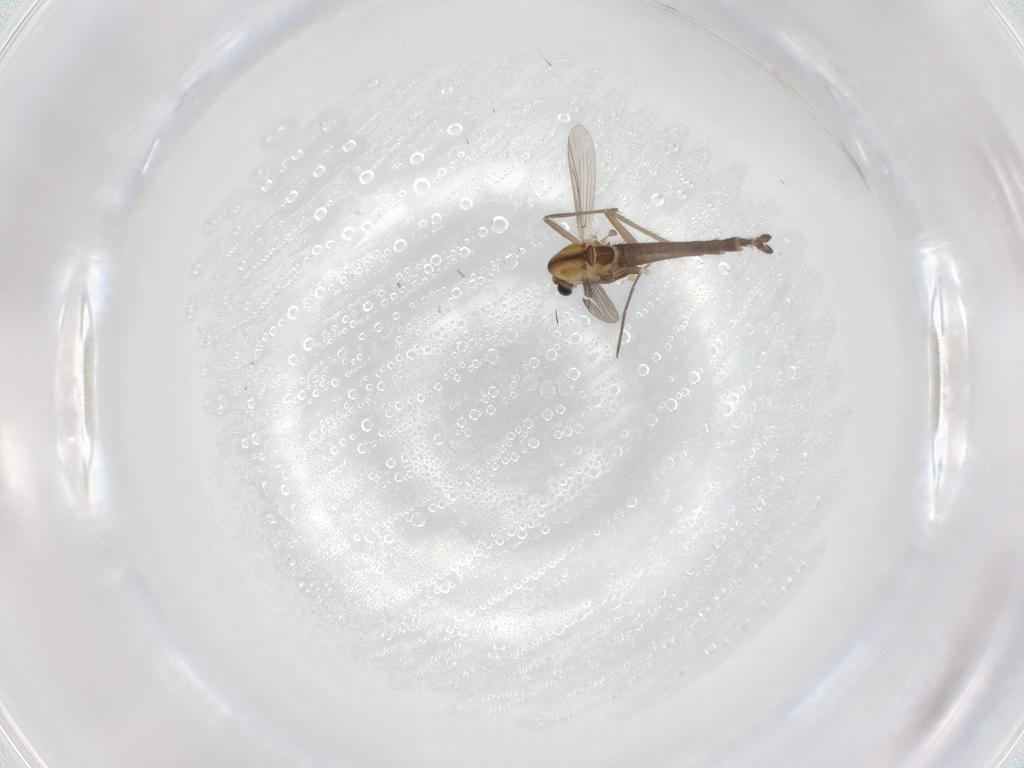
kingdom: Animalia
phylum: Arthropoda
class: Insecta
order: Diptera
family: Chironomidae
